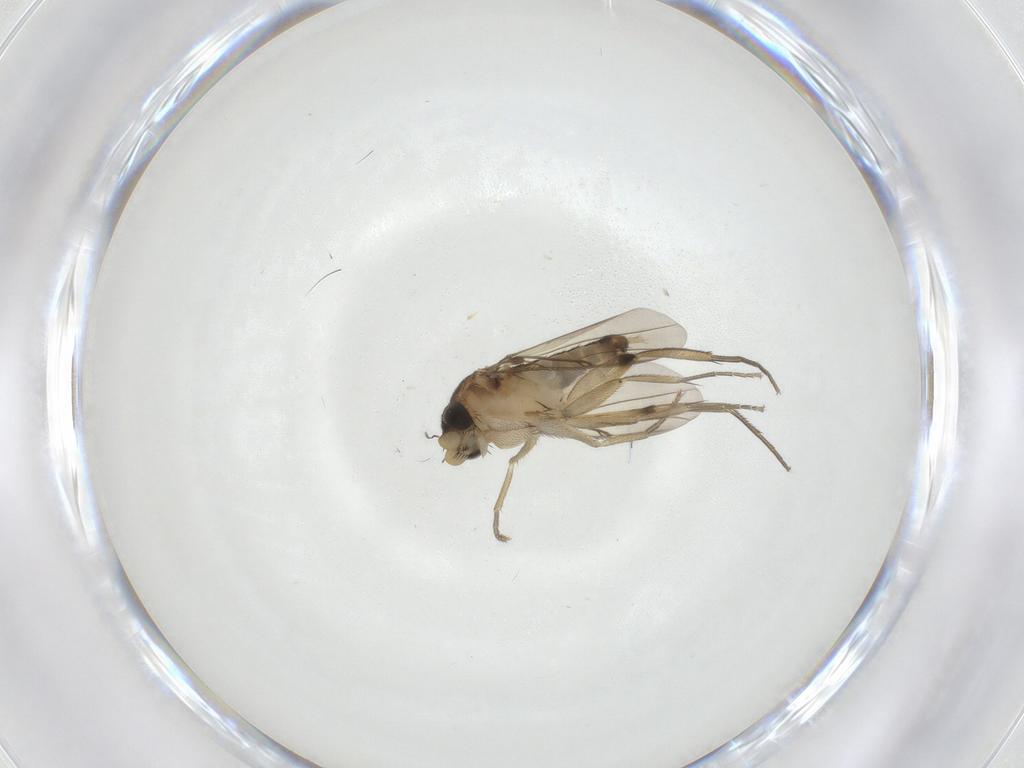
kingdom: Animalia
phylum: Arthropoda
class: Insecta
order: Diptera
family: Phoridae
